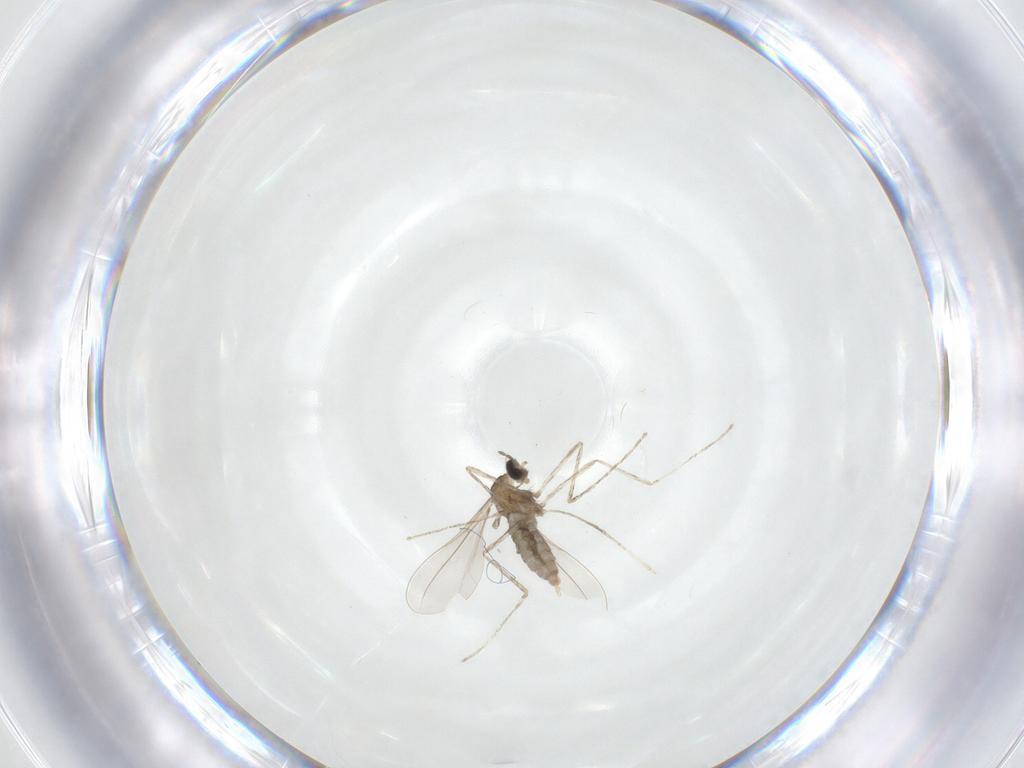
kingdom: Animalia
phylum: Arthropoda
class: Insecta
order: Diptera
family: Cecidomyiidae
